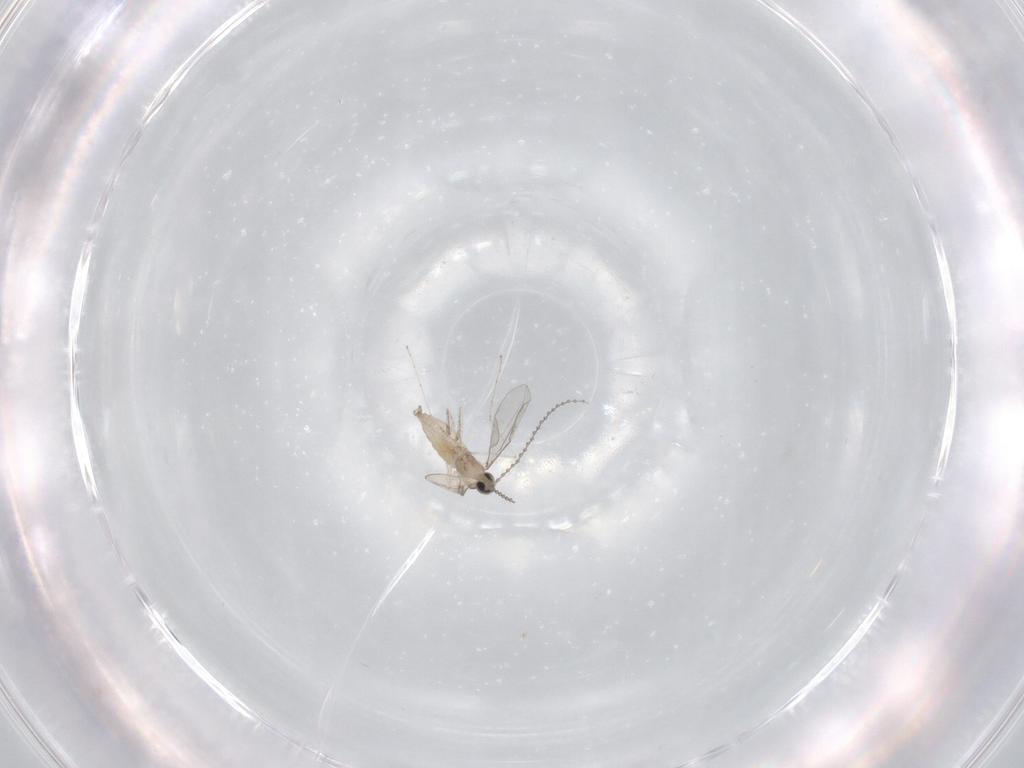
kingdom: Animalia
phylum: Arthropoda
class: Insecta
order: Diptera
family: Cecidomyiidae
